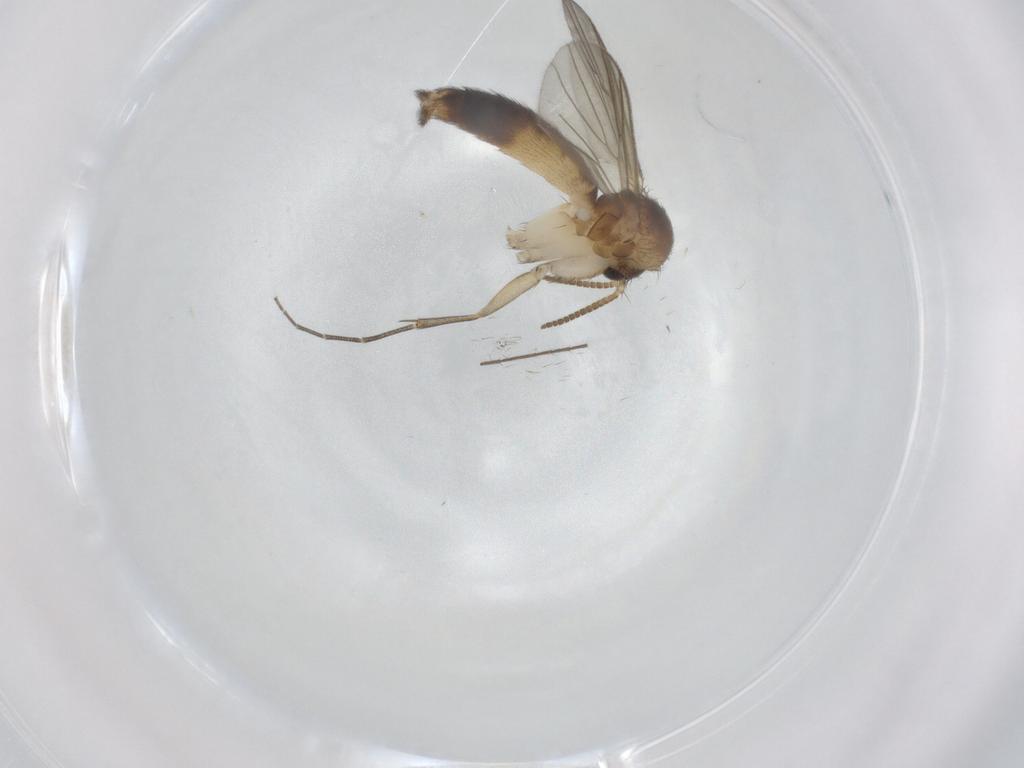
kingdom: Animalia
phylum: Arthropoda
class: Insecta
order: Diptera
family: Mycetophilidae
